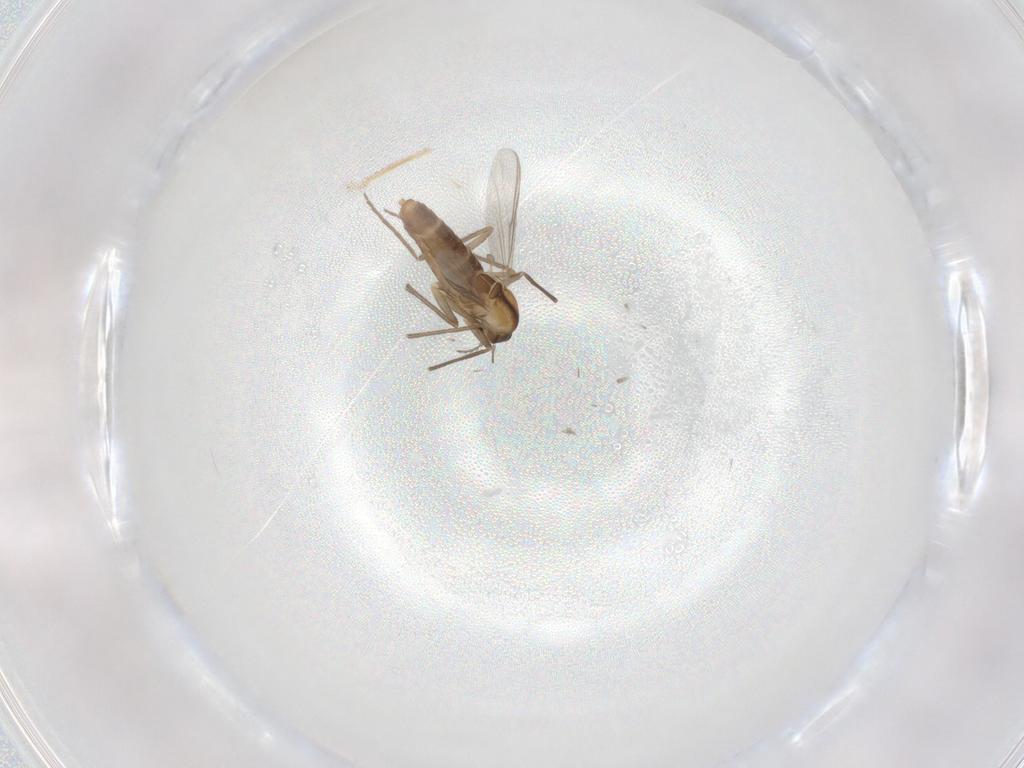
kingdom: Animalia
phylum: Arthropoda
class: Insecta
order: Diptera
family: Chironomidae
